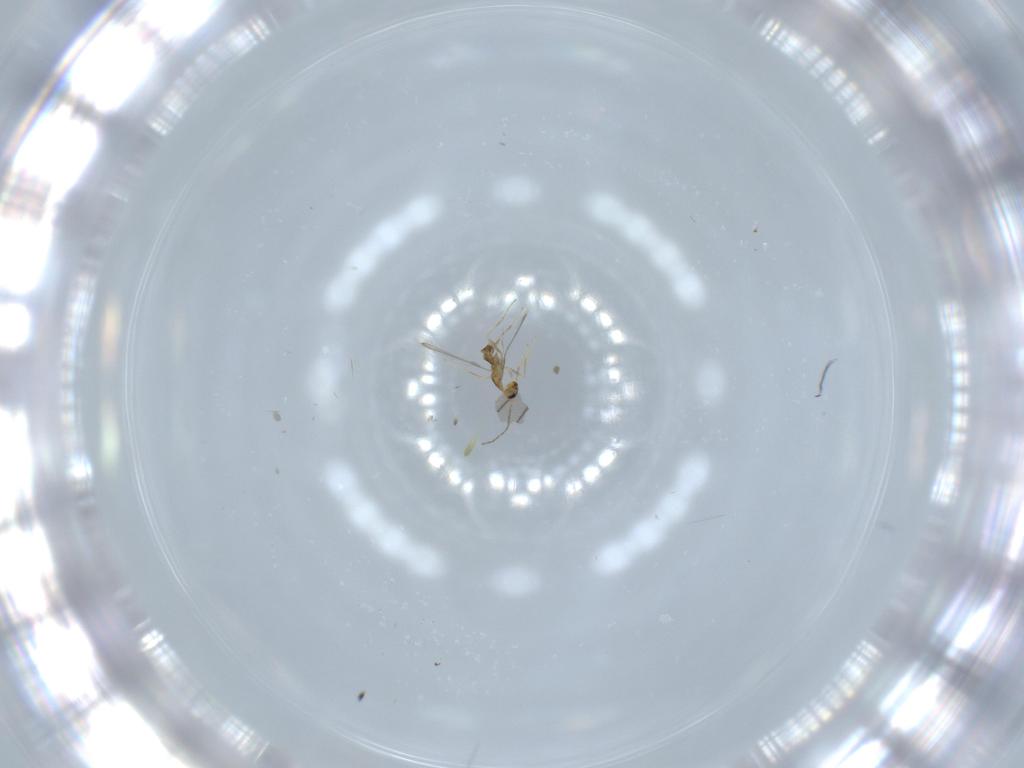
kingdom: Animalia
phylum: Arthropoda
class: Insecta
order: Hymenoptera
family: Mymaridae
